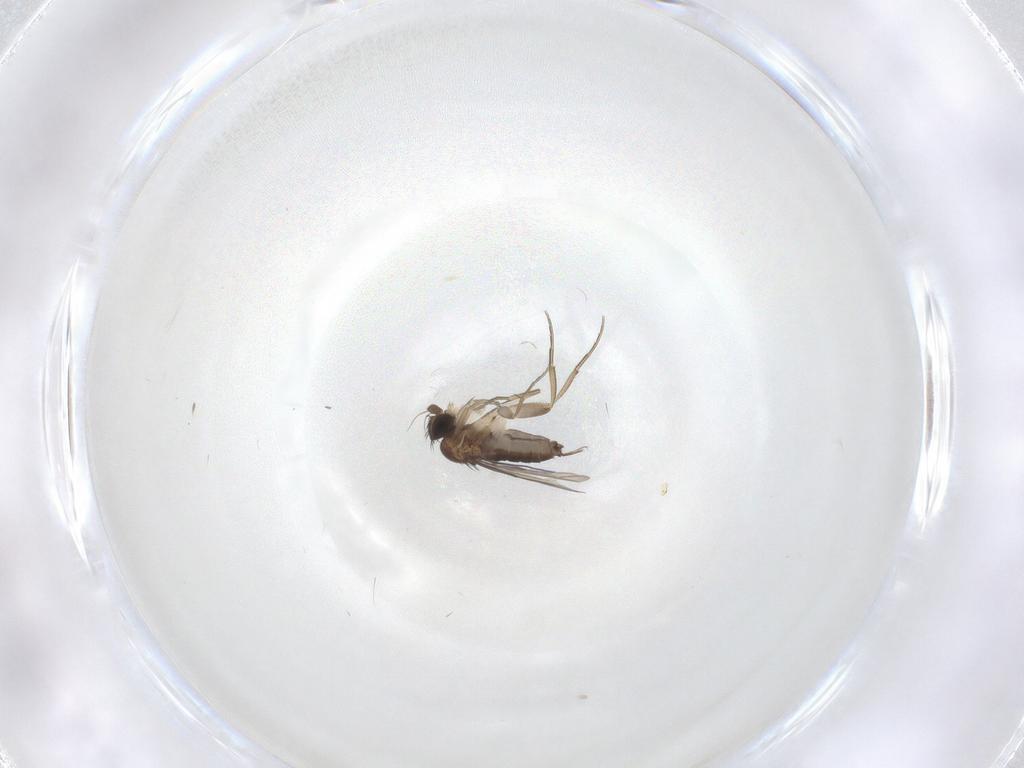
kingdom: Animalia
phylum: Arthropoda
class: Insecta
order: Diptera
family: Phoridae
